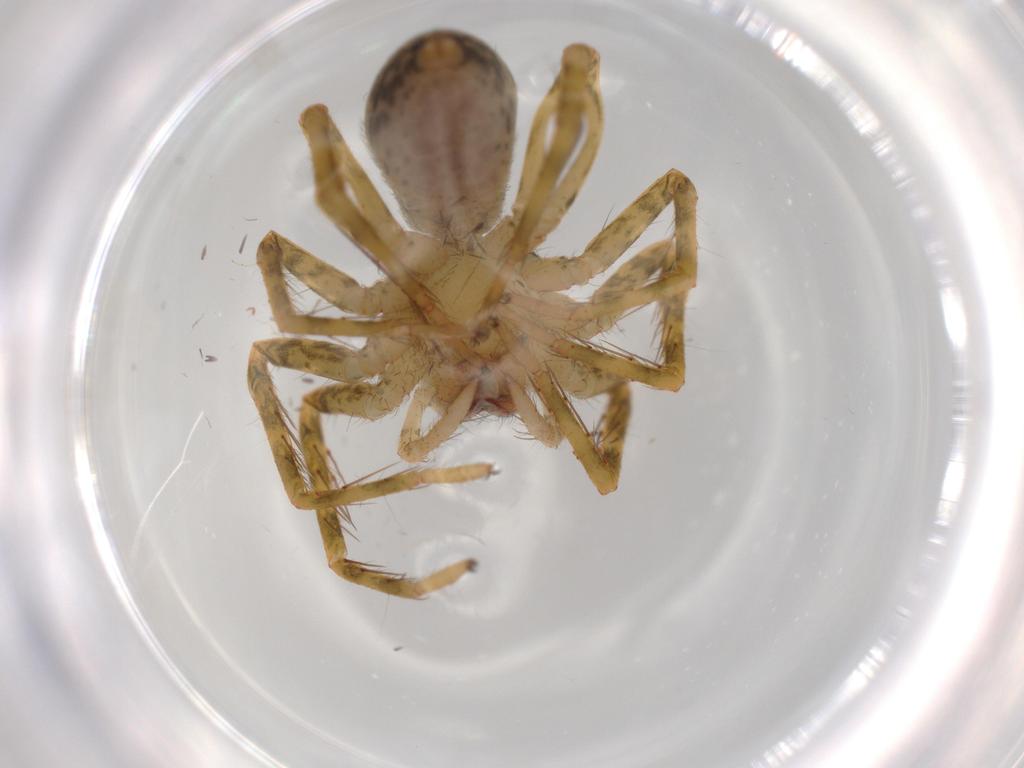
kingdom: Animalia
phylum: Arthropoda
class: Arachnida
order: Araneae
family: Ctenidae
